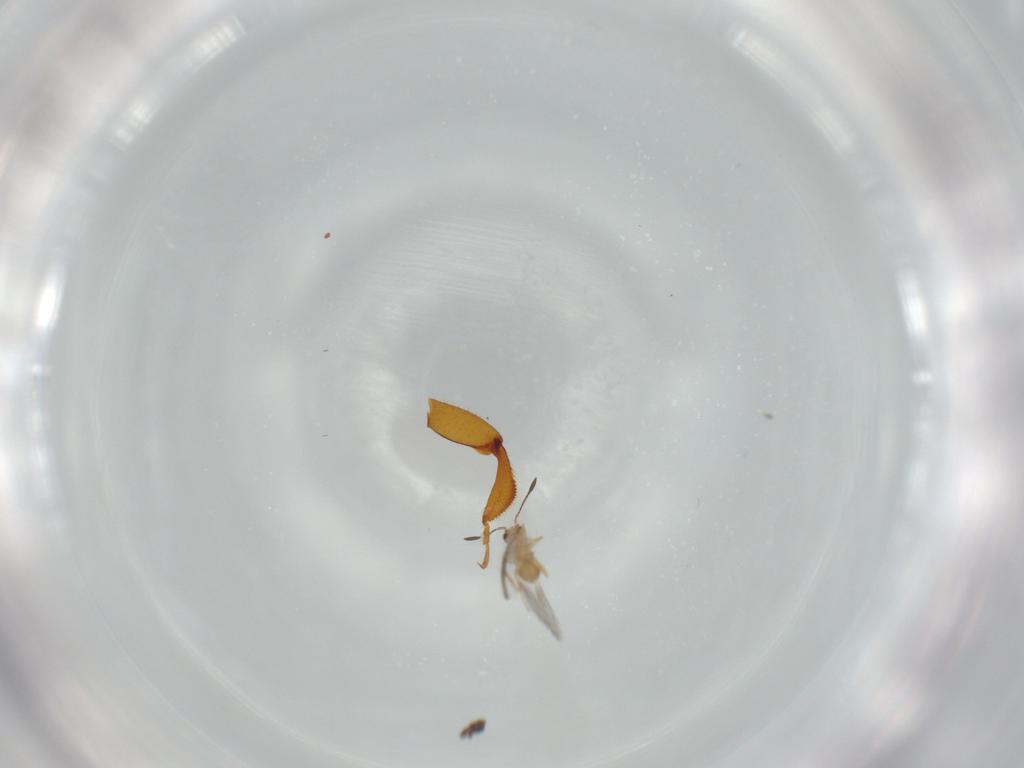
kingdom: Animalia
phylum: Arthropoda
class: Insecta
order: Hymenoptera
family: Scelionidae
